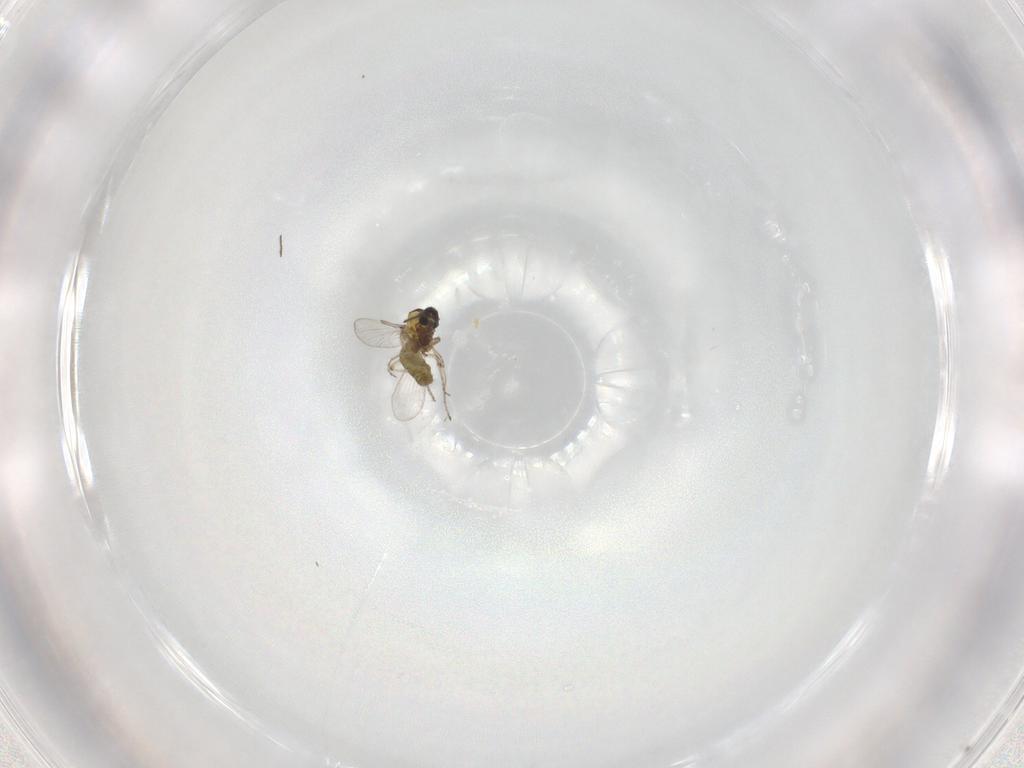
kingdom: Animalia
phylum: Arthropoda
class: Insecta
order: Diptera
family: Ceratopogonidae
